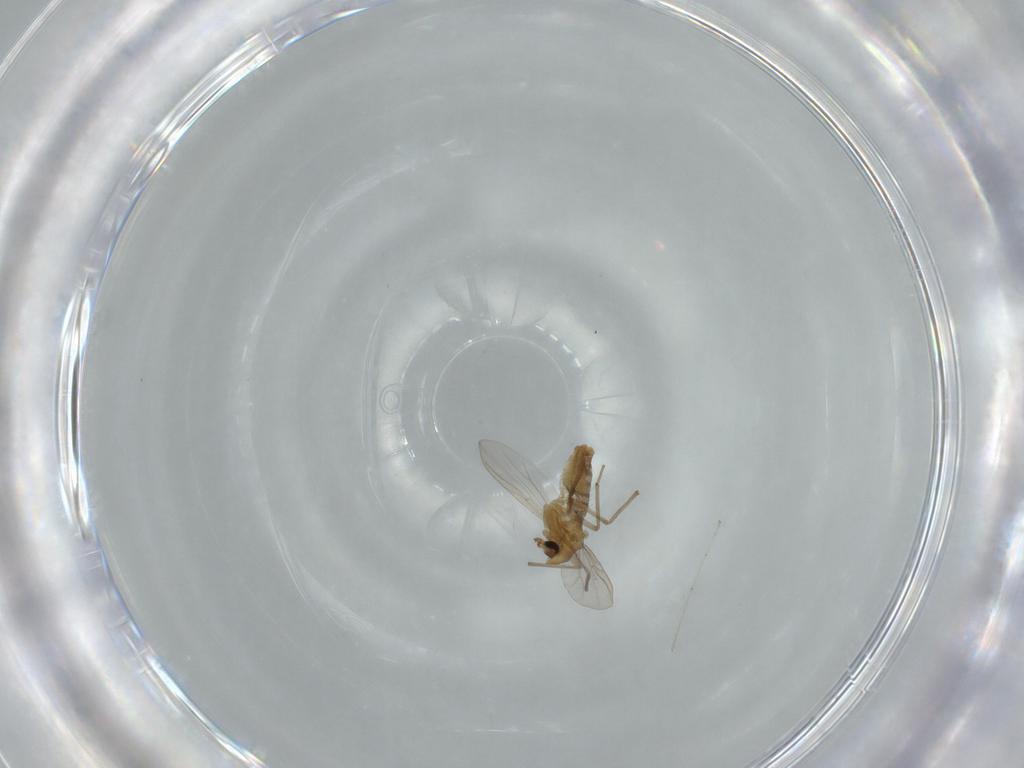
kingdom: Animalia
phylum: Arthropoda
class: Insecta
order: Diptera
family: Chironomidae
